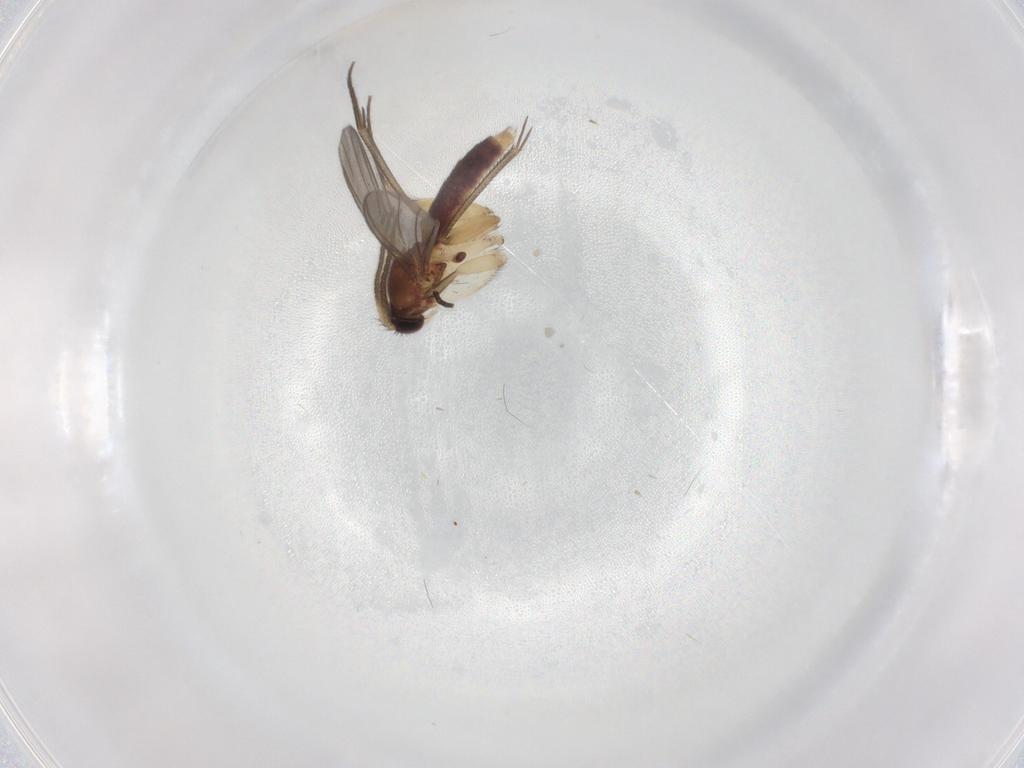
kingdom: Animalia
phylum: Arthropoda
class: Insecta
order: Diptera
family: Mycetophilidae
